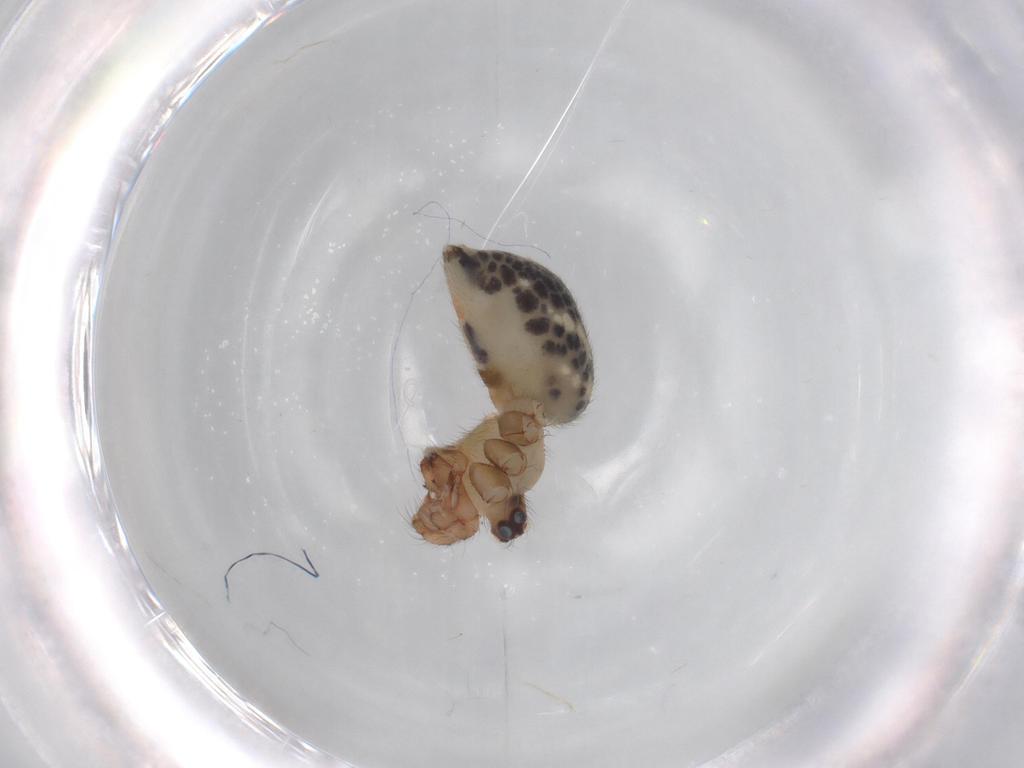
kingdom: Animalia
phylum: Arthropoda
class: Arachnida
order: Araneae
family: Pholcidae
